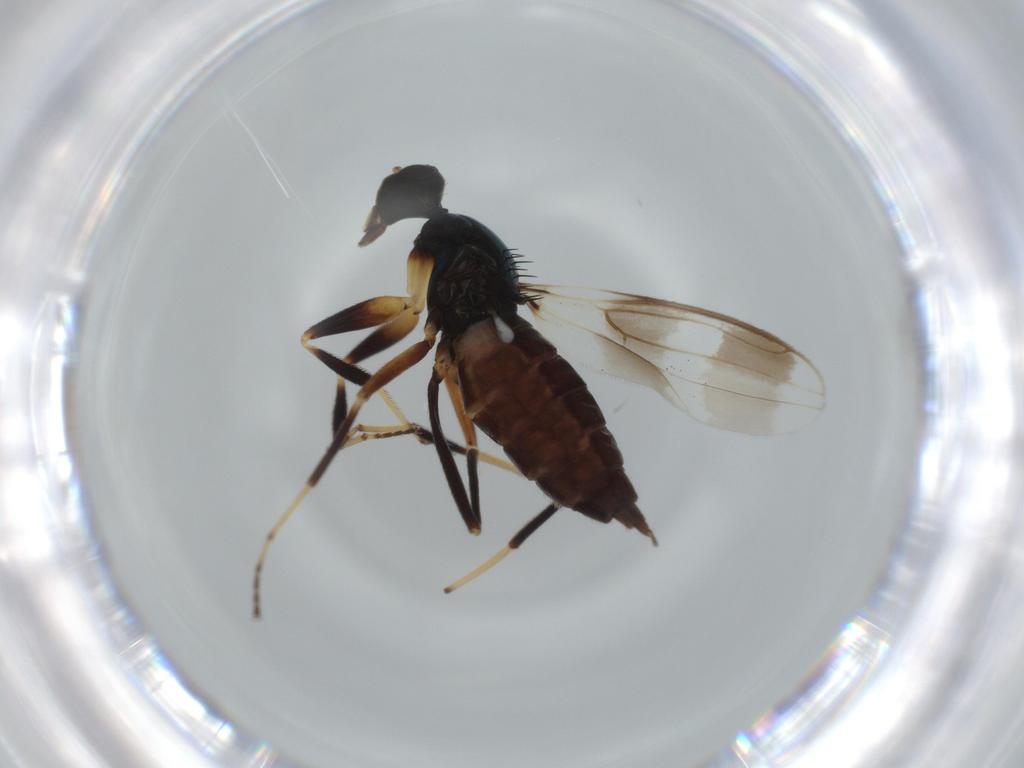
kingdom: Animalia
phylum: Arthropoda
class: Insecta
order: Diptera
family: Hybotidae
